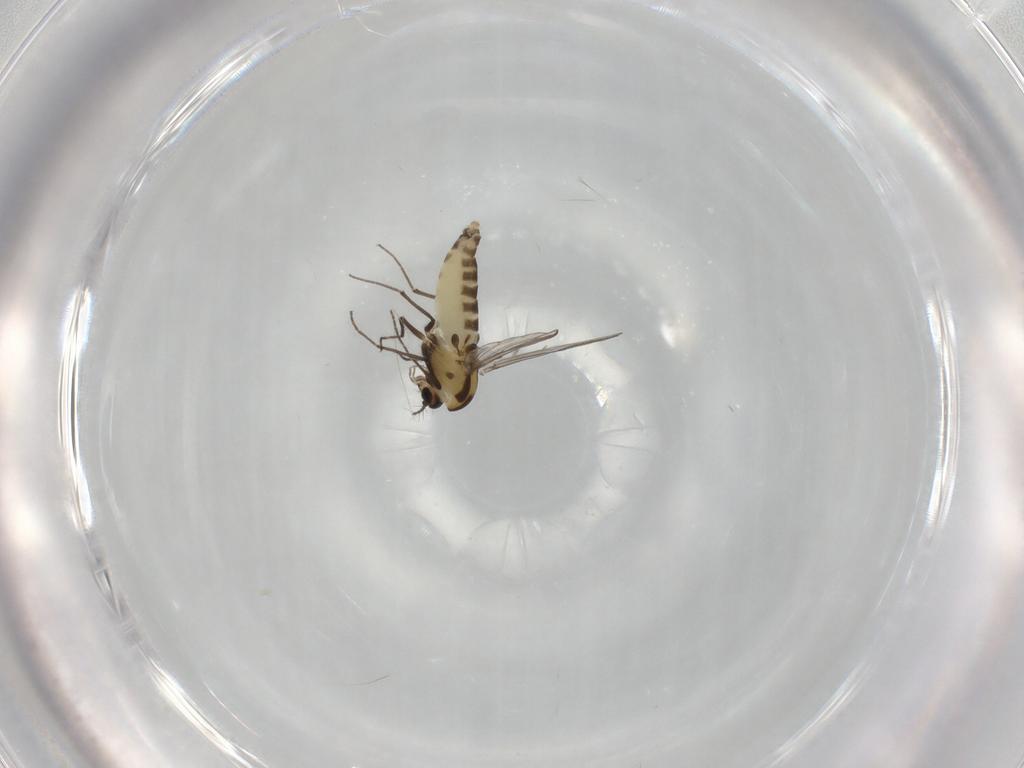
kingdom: Animalia
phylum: Arthropoda
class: Insecta
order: Diptera
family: Chironomidae
